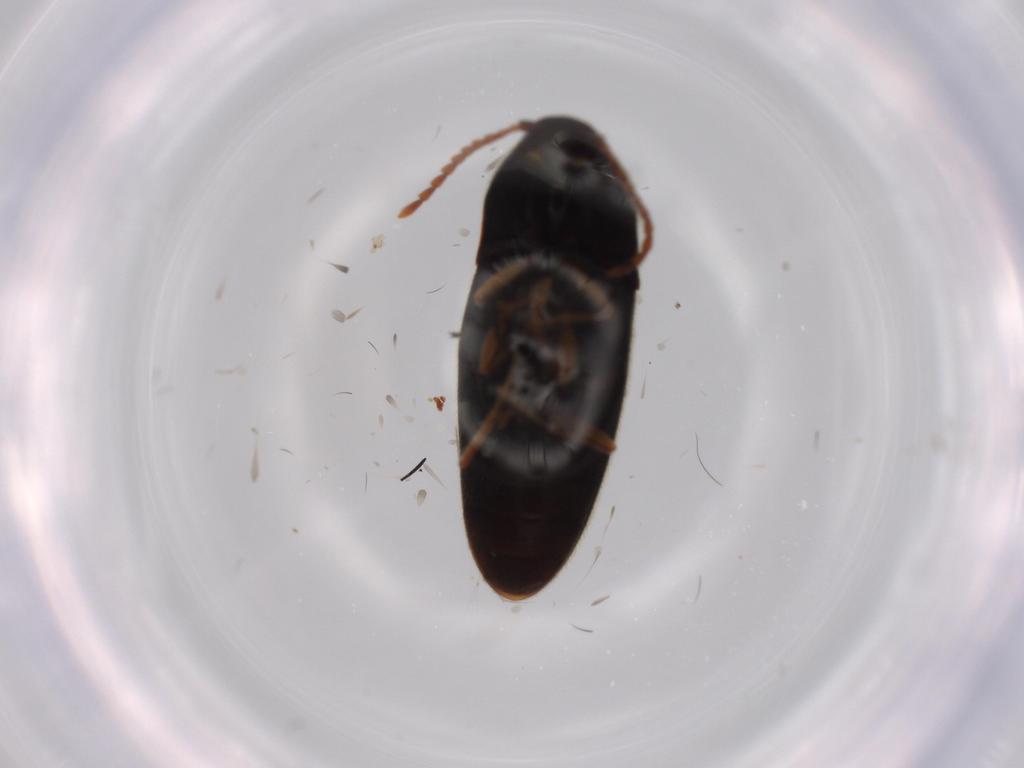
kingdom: Animalia
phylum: Arthropoda
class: Insecta
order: Coleoptera
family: Elateridae
